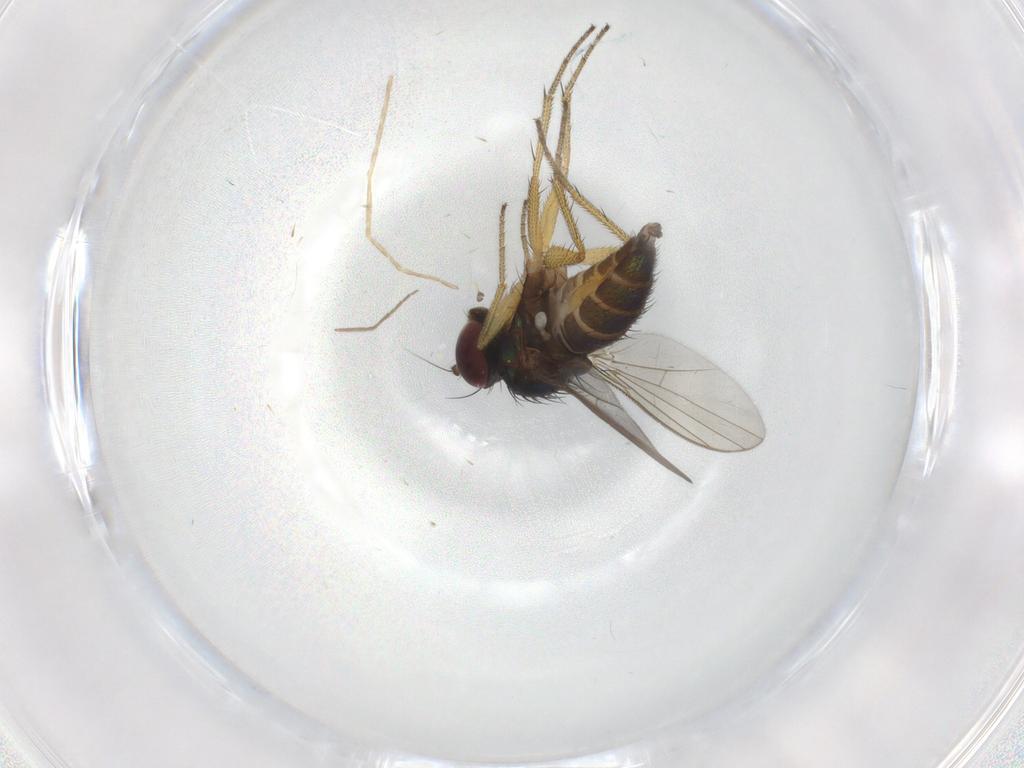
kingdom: Animalia
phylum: Arthropoda
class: Insecta
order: Diptera
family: Dolichopodidae
